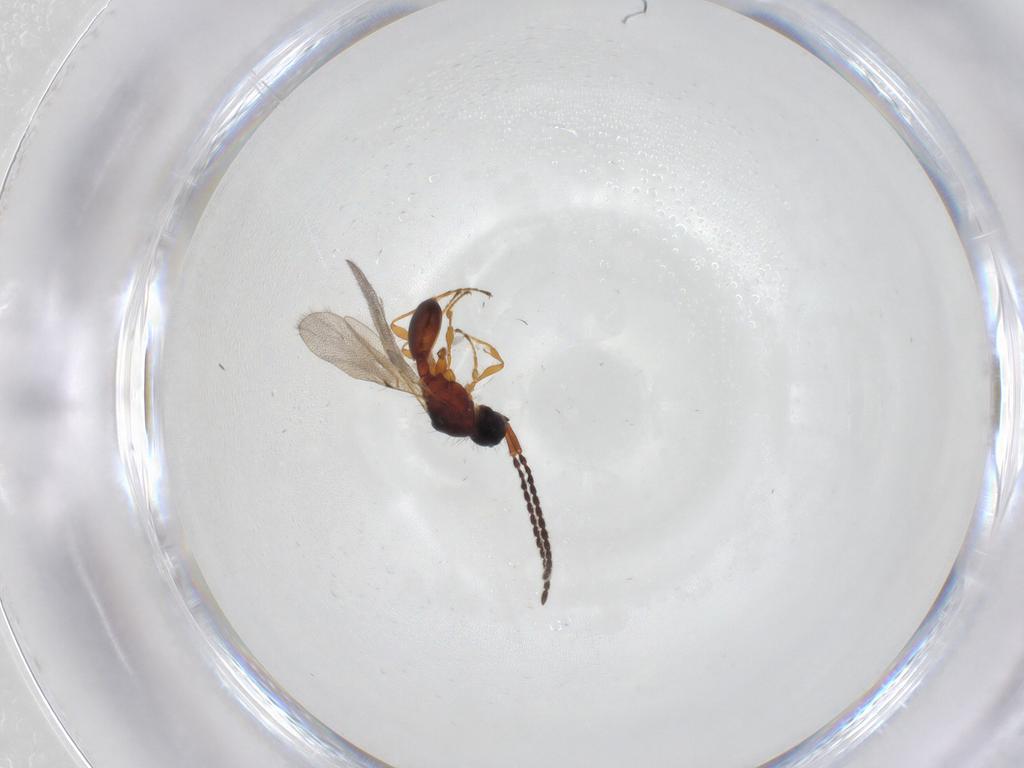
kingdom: Animalia
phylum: Arthropoda
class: Insecta
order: Hymenoptera
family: Diapriidae
